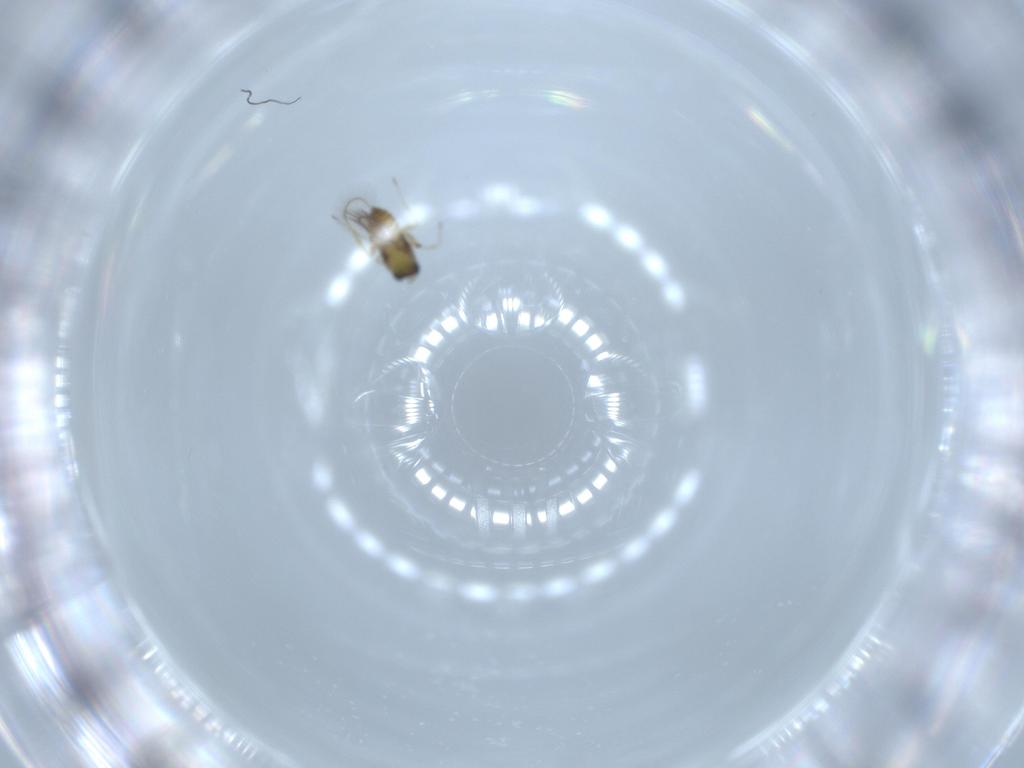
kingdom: Animalia
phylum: Arthropoda
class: Insecta
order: Hymenoptera
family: Trichogrammatidae
